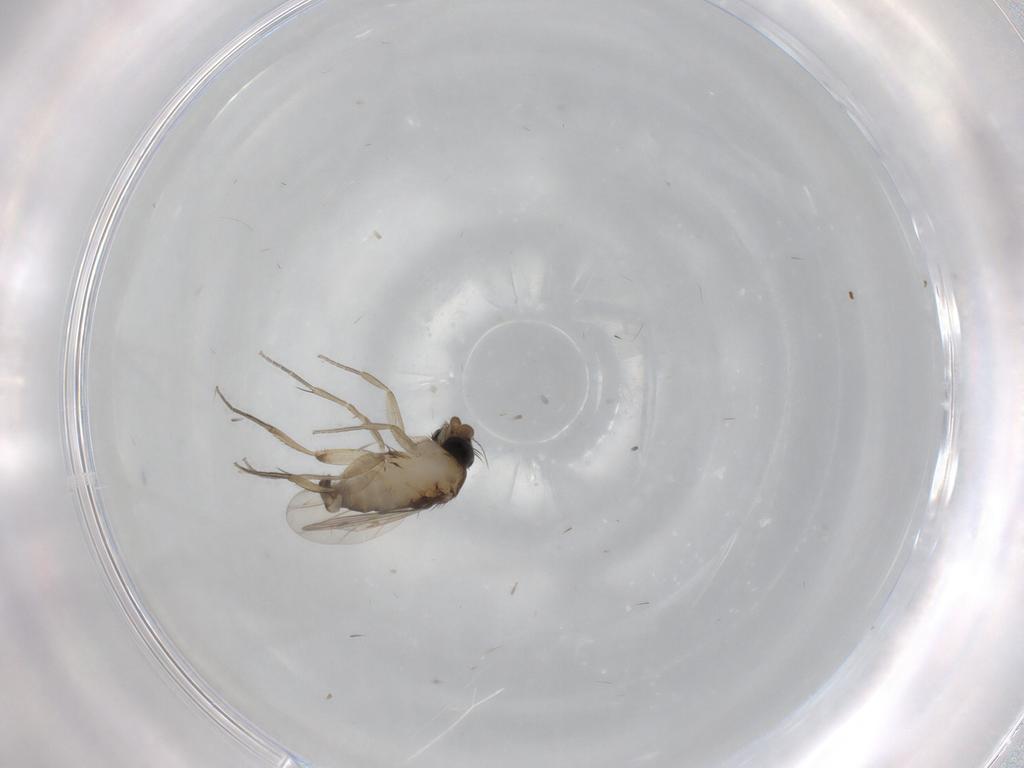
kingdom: Animalia
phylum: Arthropoda
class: Insecta
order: Diptera
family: Phoridae
